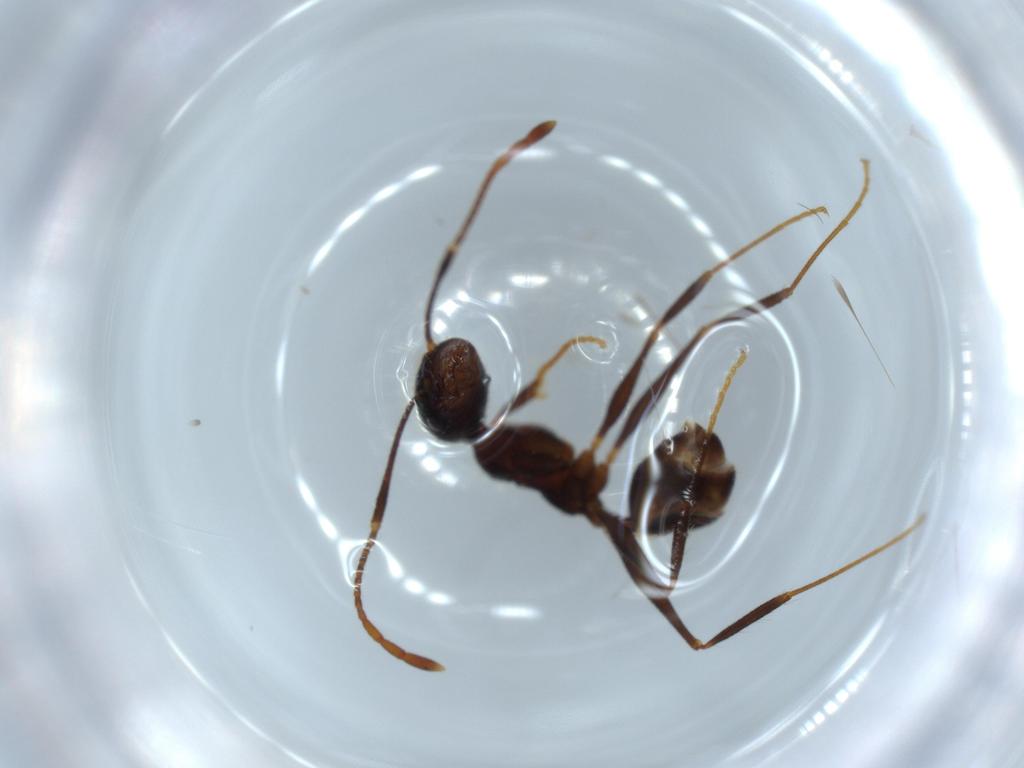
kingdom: Animalia
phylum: Arthropoda
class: Insecta
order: Hymenoptera
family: Formicidae
